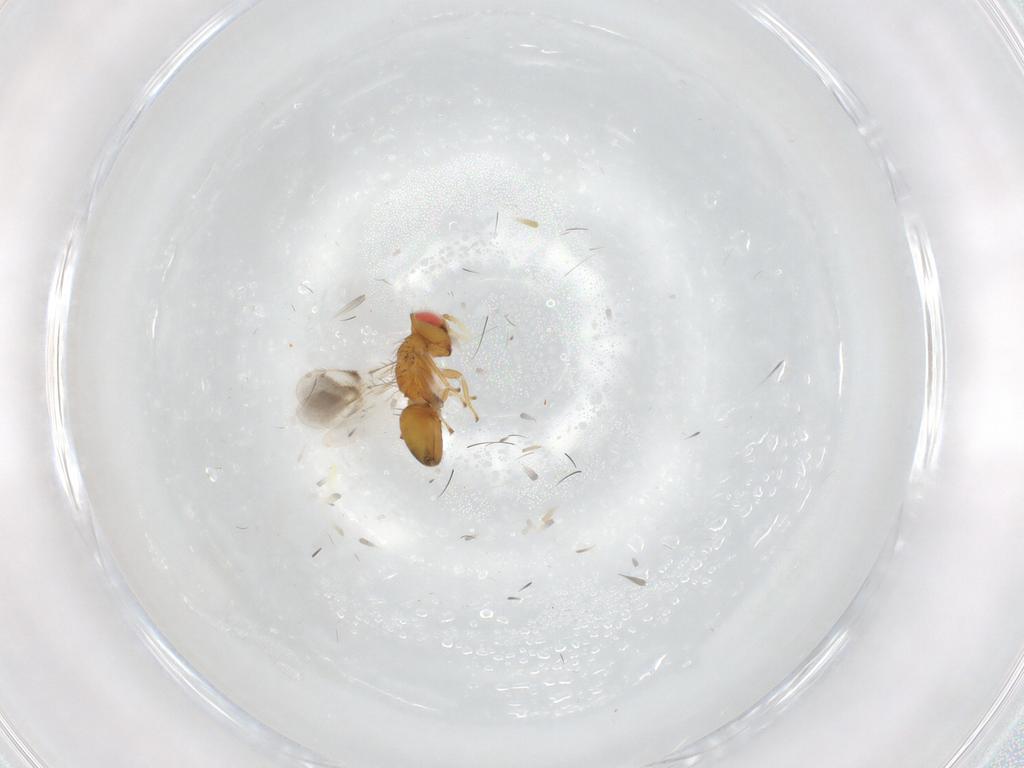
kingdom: Animalia
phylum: Arthropoda
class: Insecta
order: Hymenoptera
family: Eulophidae
